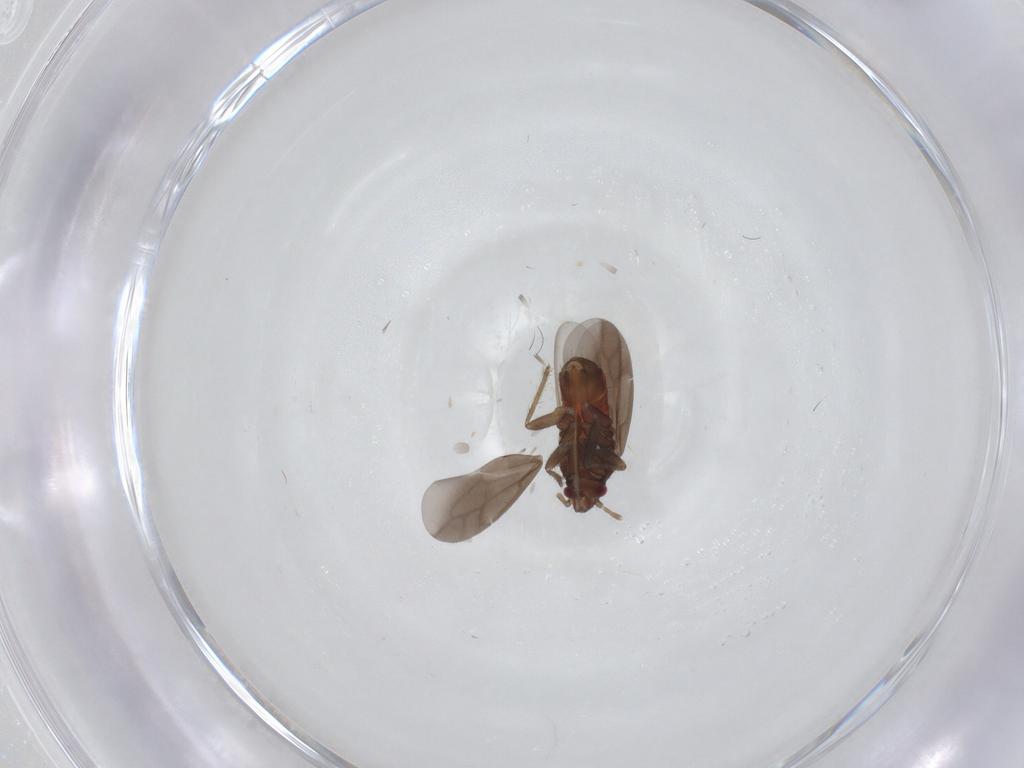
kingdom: Animalia
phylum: Arthropoda
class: Insecta
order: Hemiptera
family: Ceratocombidae
